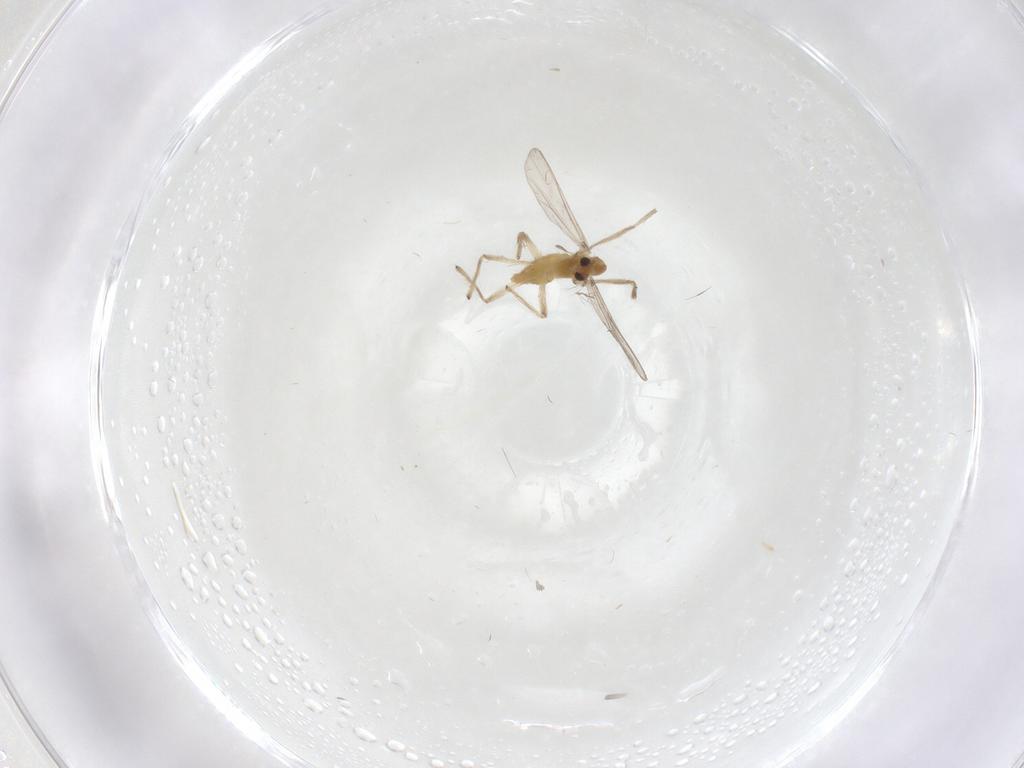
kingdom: Animalia
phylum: Arthropoda
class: Insecta
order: Diptera
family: Chironomidae
